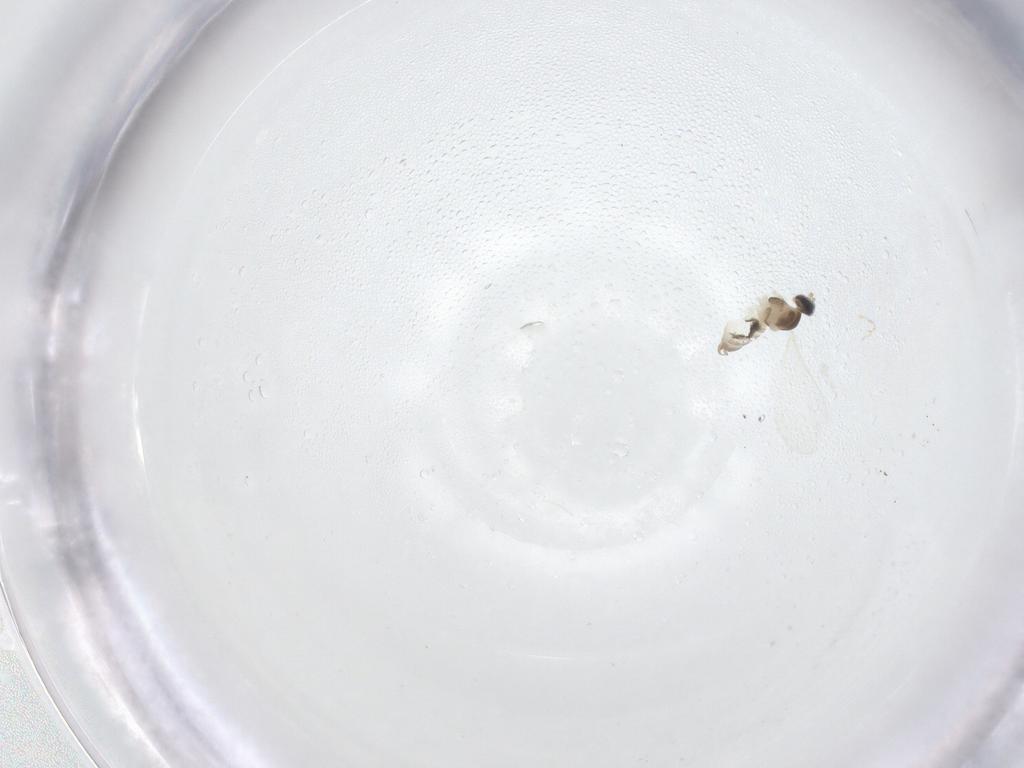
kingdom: Animalia
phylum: Arthropoda
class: Insecta
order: Diptera
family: Cecidomyiidae
